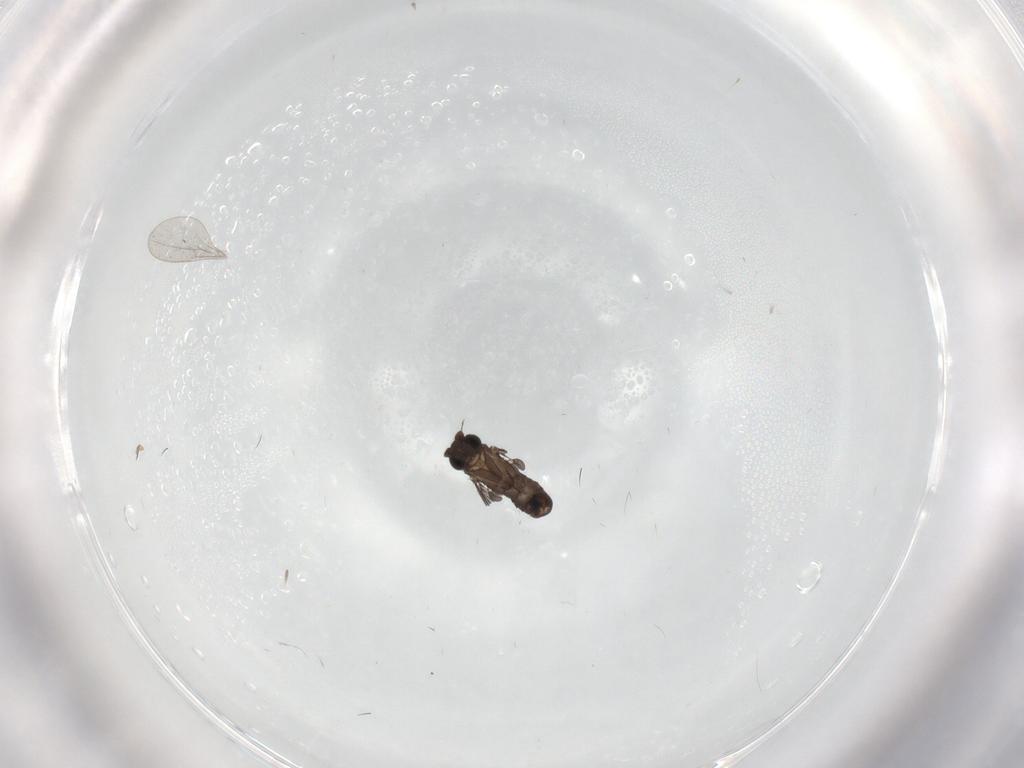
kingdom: Animalia
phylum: Arthropoda
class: Insecta
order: Diptera
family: Phoridae
